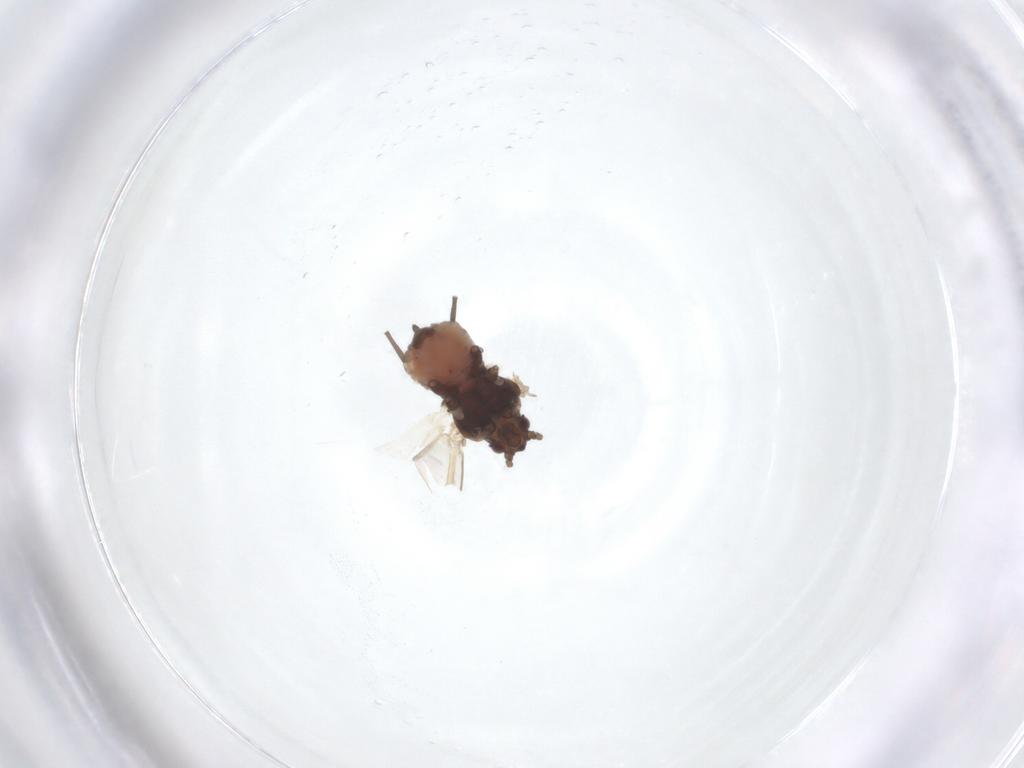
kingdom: Animalia
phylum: Arthropoda
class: Insecta
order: Hemiptera
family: Aphididae
